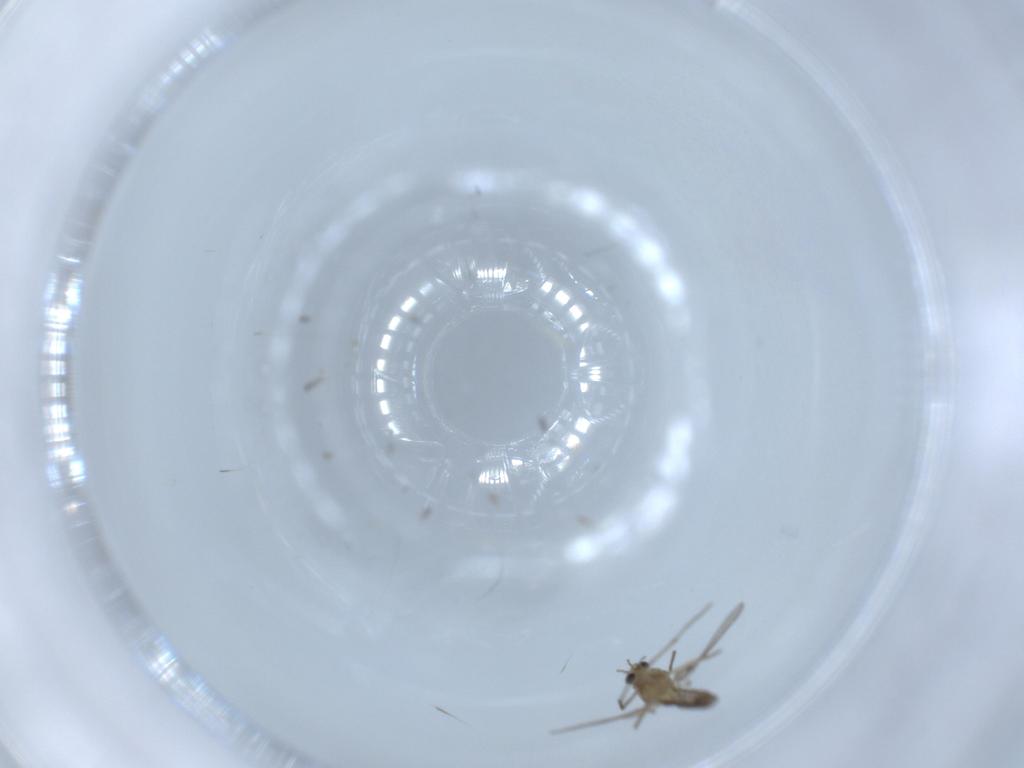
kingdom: Animalia
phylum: Arthropoda
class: Insecta
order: Diptera
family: Chironomidae
